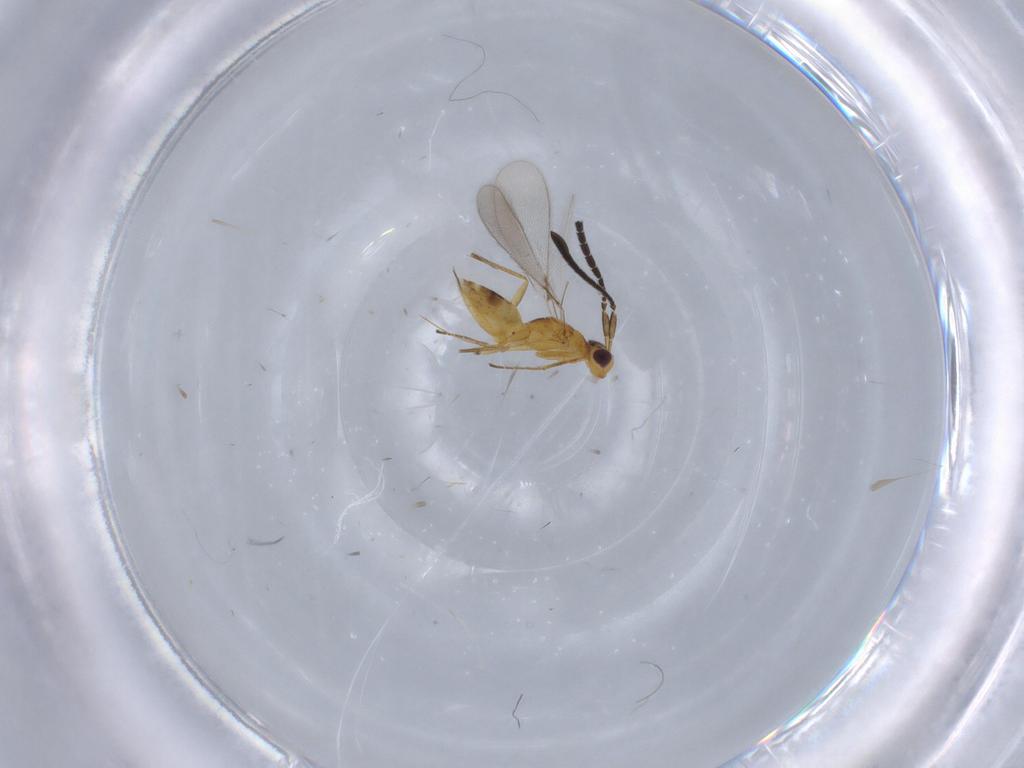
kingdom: Animalia
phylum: Arthropoda
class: Insecta
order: Hymenoptera
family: Mymaridae
